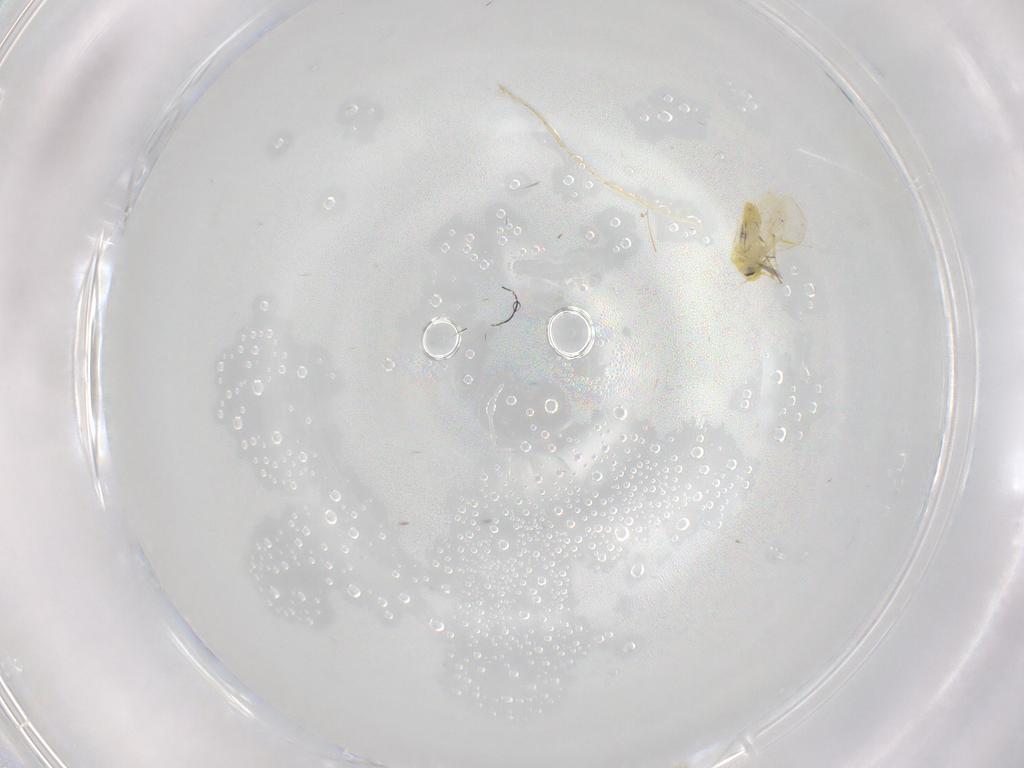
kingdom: Animalia
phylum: Arthropoda
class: Insecta
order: Hemiptera
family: Aleyrodidae
